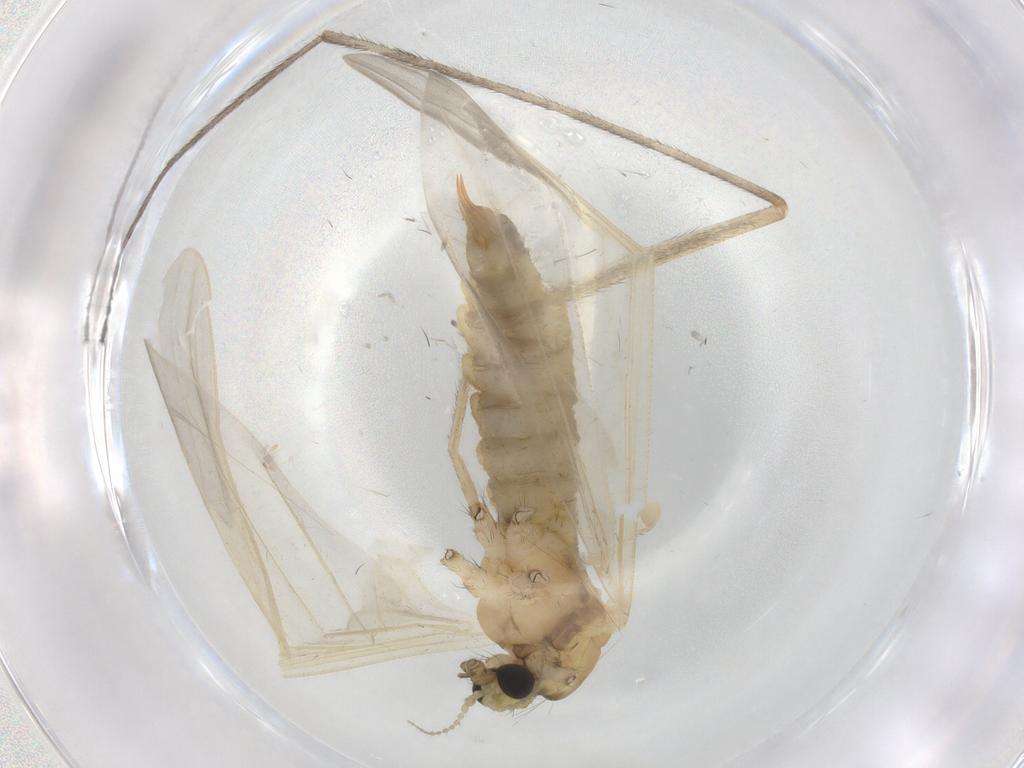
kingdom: Animalia
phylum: Arthropoda
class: Insecta
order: Diptera
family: Limoniidae
